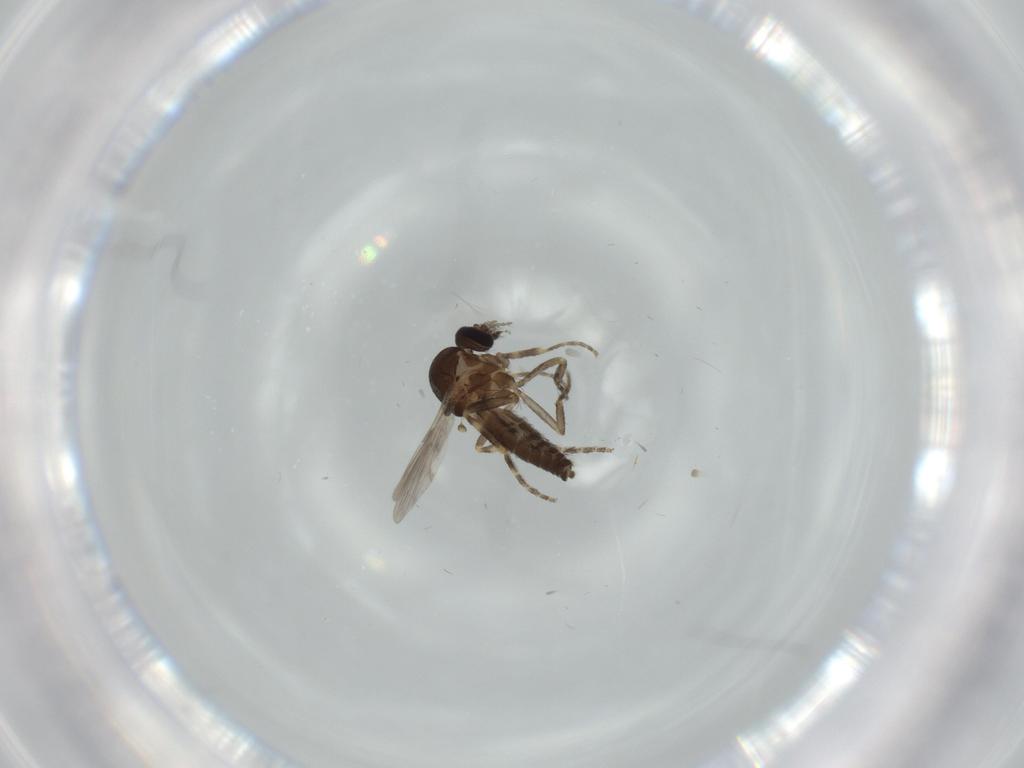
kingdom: Animalia
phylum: Arthropoda
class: Insecta
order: Diptera
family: Ceratopogonidae
